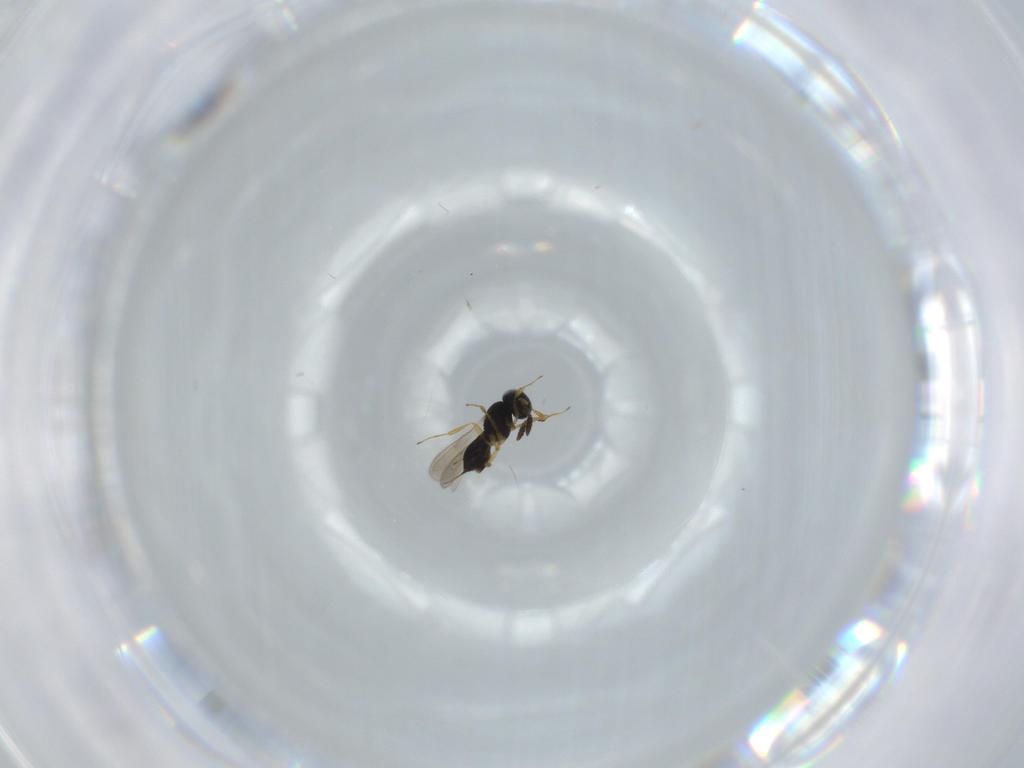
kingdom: Animalia
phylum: Arthropoda
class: Insecta
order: Hymenoptera
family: Scelionidae
